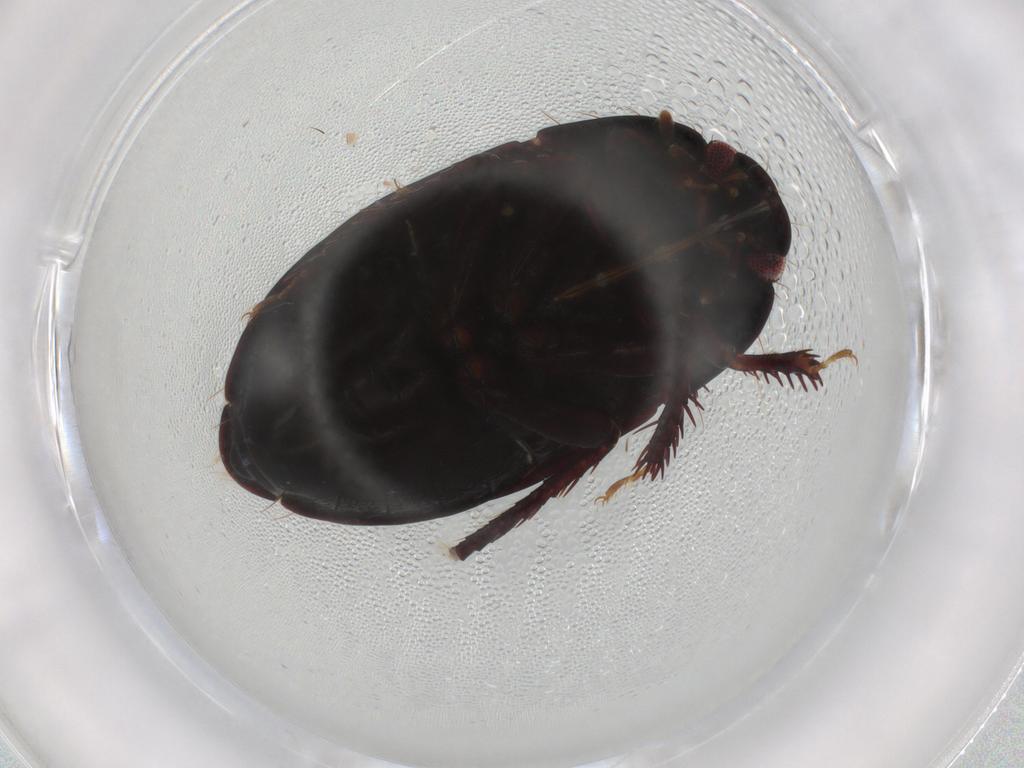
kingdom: Animalia
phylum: Arthropoda
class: Insecta
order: Hemiptera
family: Cydnidae
